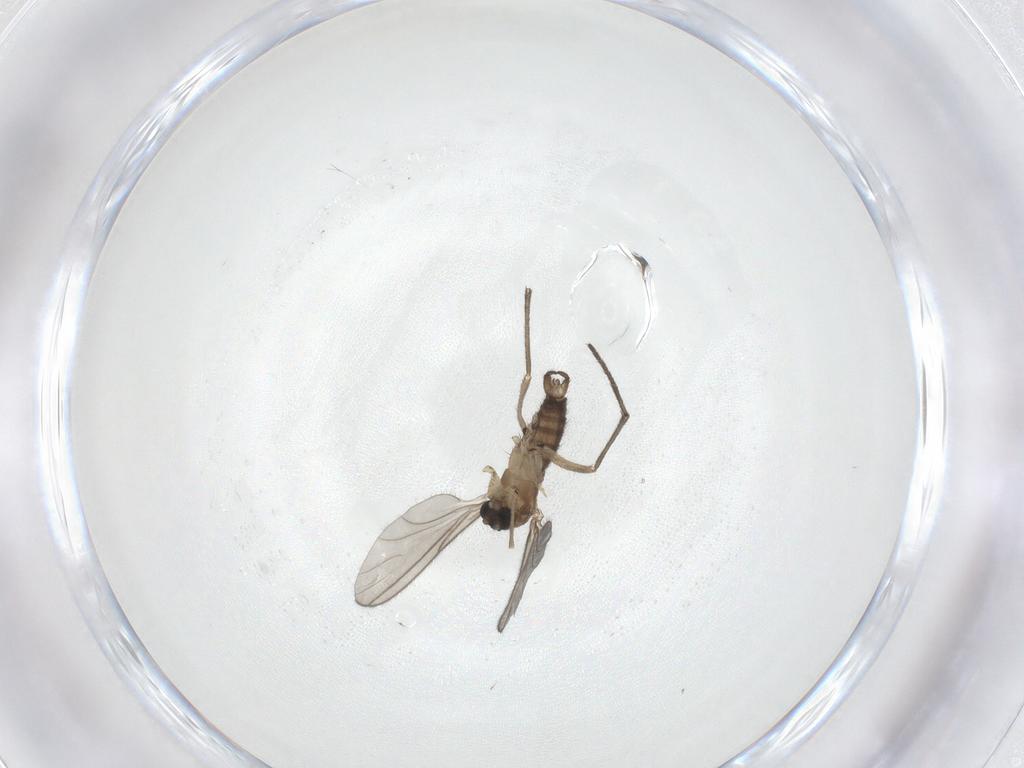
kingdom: Animalia
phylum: Arthropoda
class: Insecta
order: Diptera
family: Sciaridae
